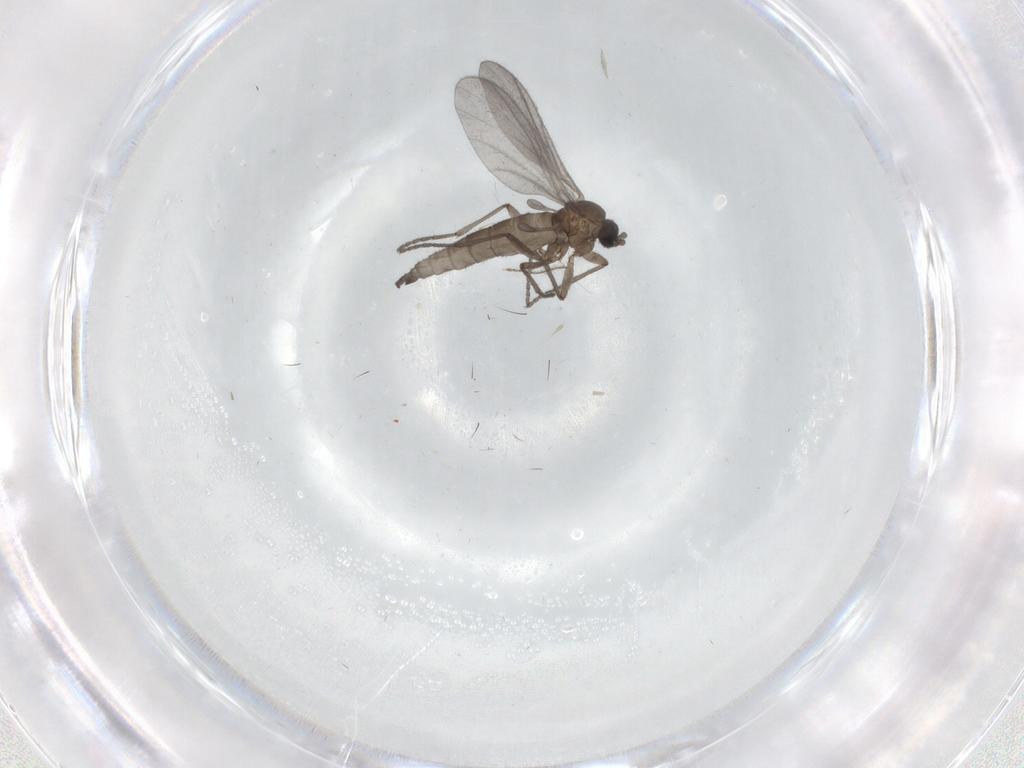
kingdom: Animalia
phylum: Arthropoda
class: Insecta
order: Diptera
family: Sciaridae
